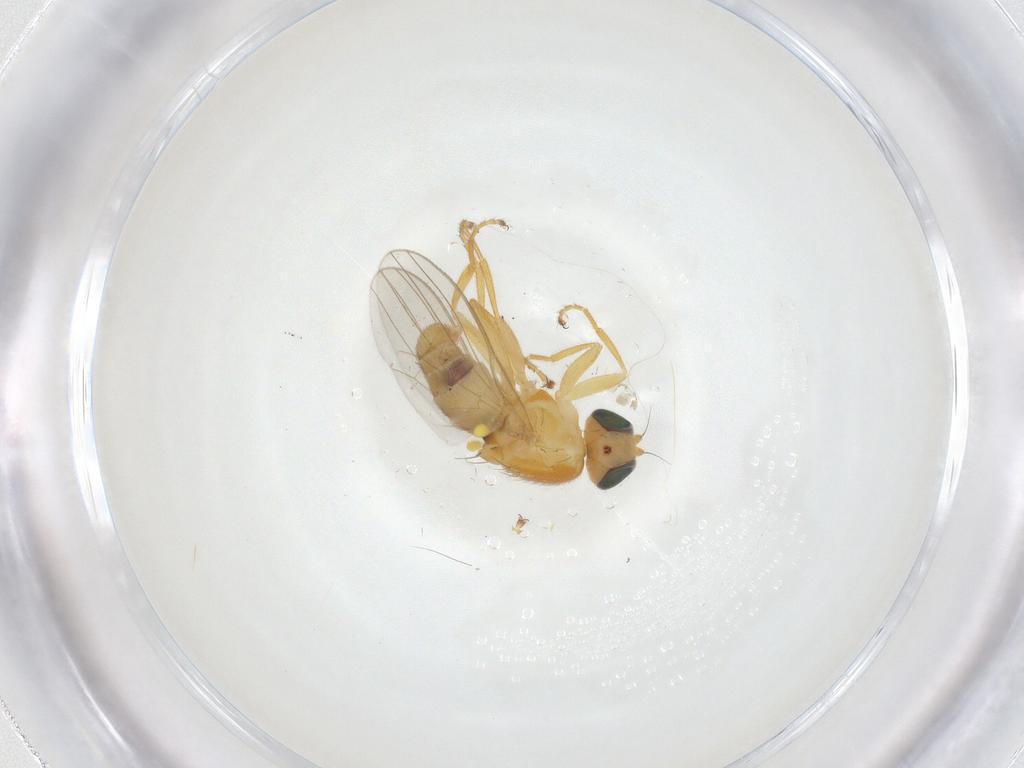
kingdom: Animalia
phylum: Arthropoda
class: Insecta
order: Diptera
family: Chyromyidae
